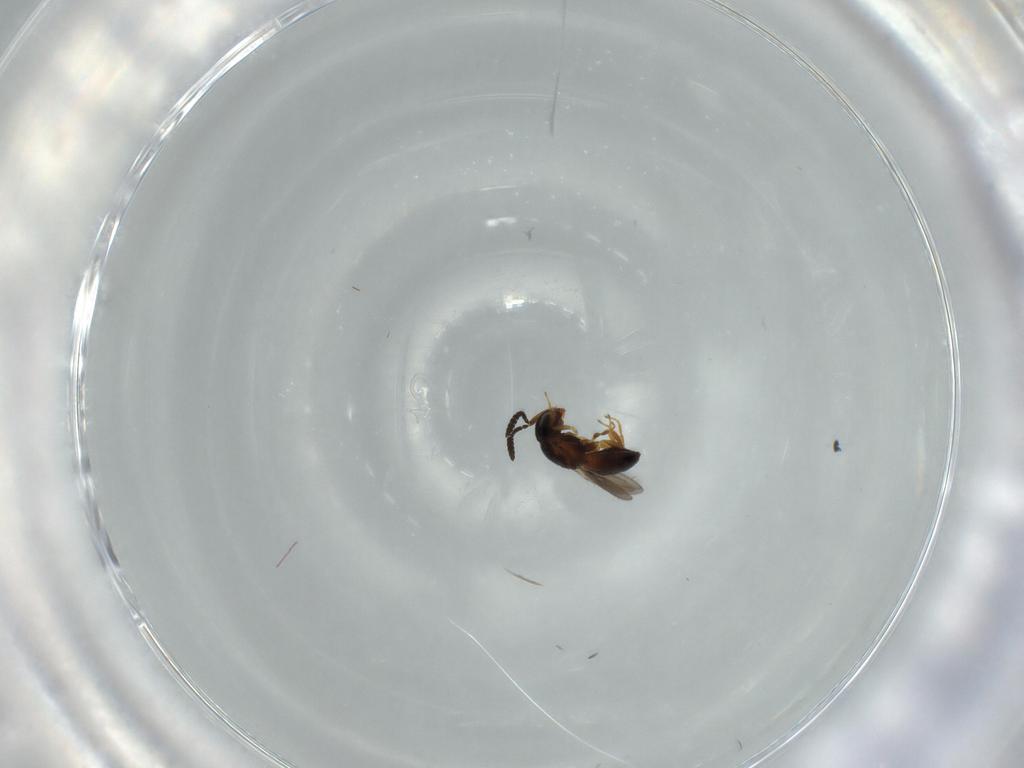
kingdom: Animalia
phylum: Arthropoda
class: Insecta
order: Hymenoptera
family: Scelionidae
